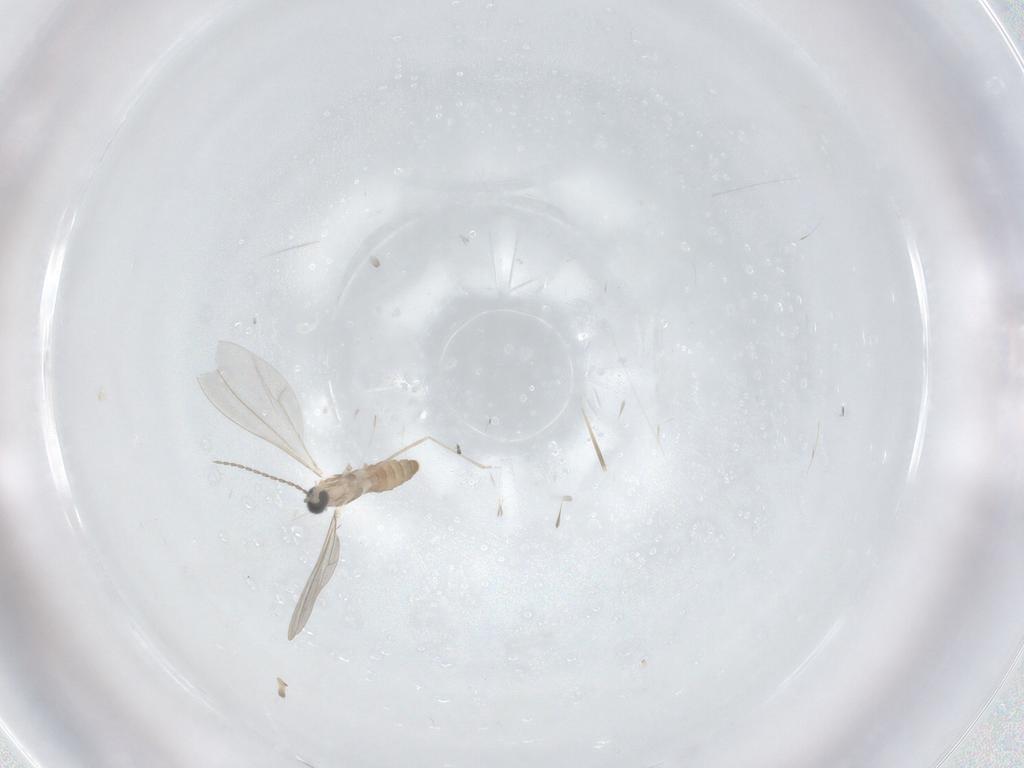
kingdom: Animalia
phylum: Arthropoda
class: Insecta
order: Diptera
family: Cecidomyiidae
